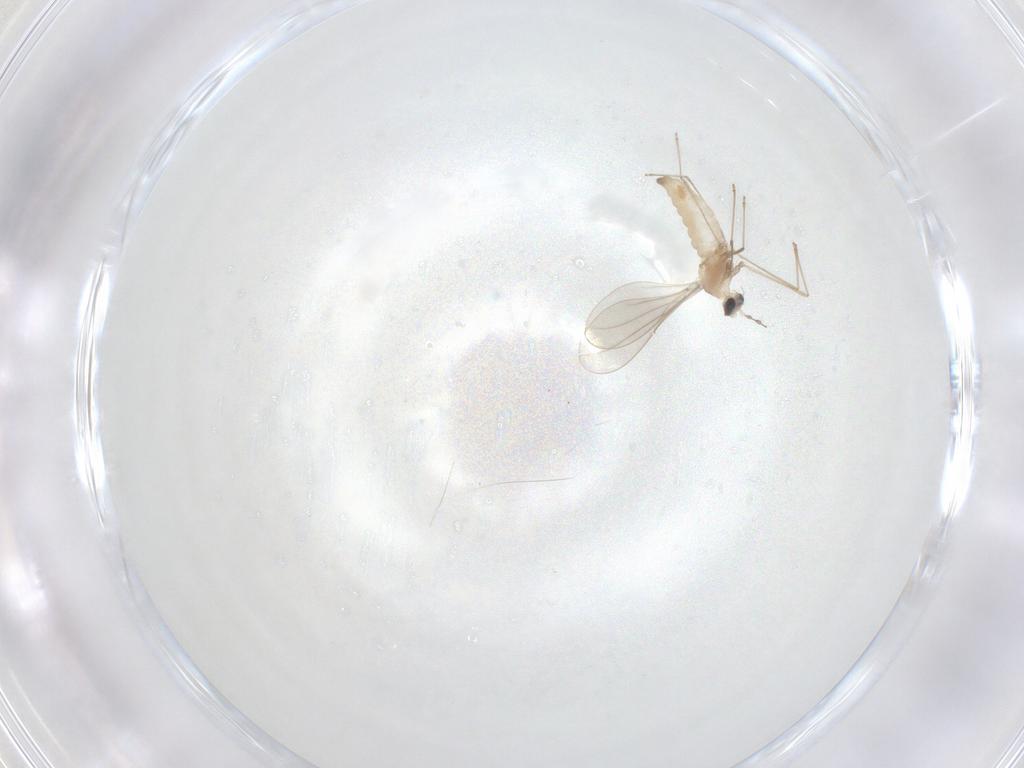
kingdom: Animalia
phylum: Arthropoda
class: Insecta
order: Diptera
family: Cecidomyiidae
